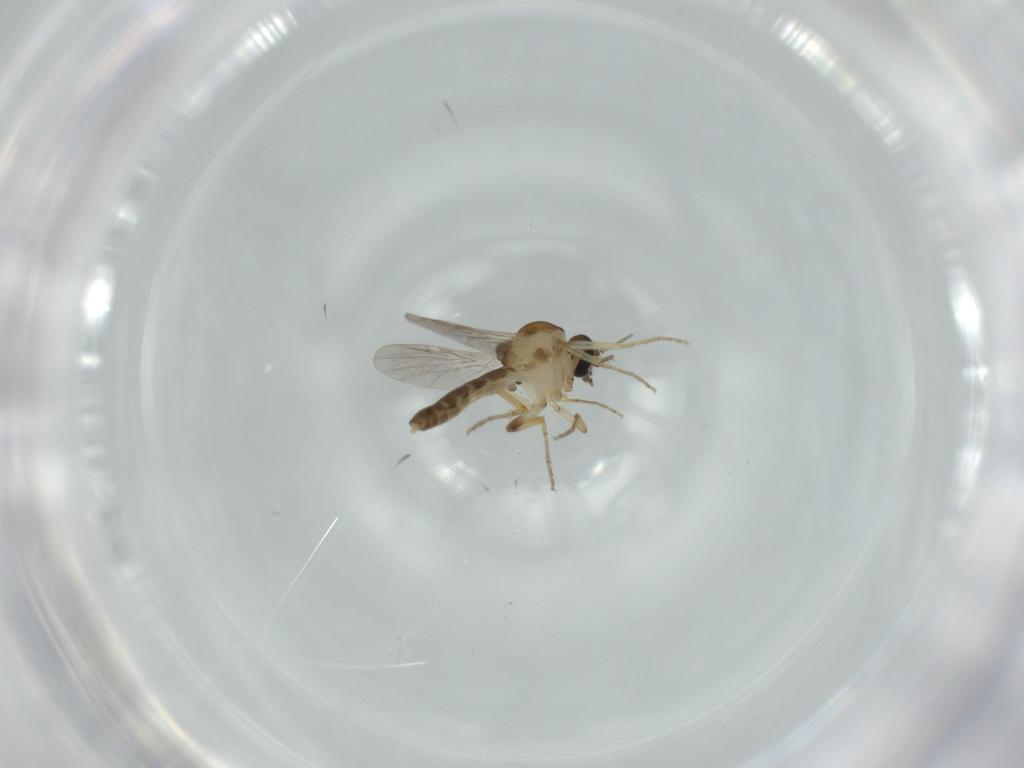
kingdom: Animalia
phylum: Arthropoda
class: Insecta
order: Diptera
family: Ceratopogonidae
